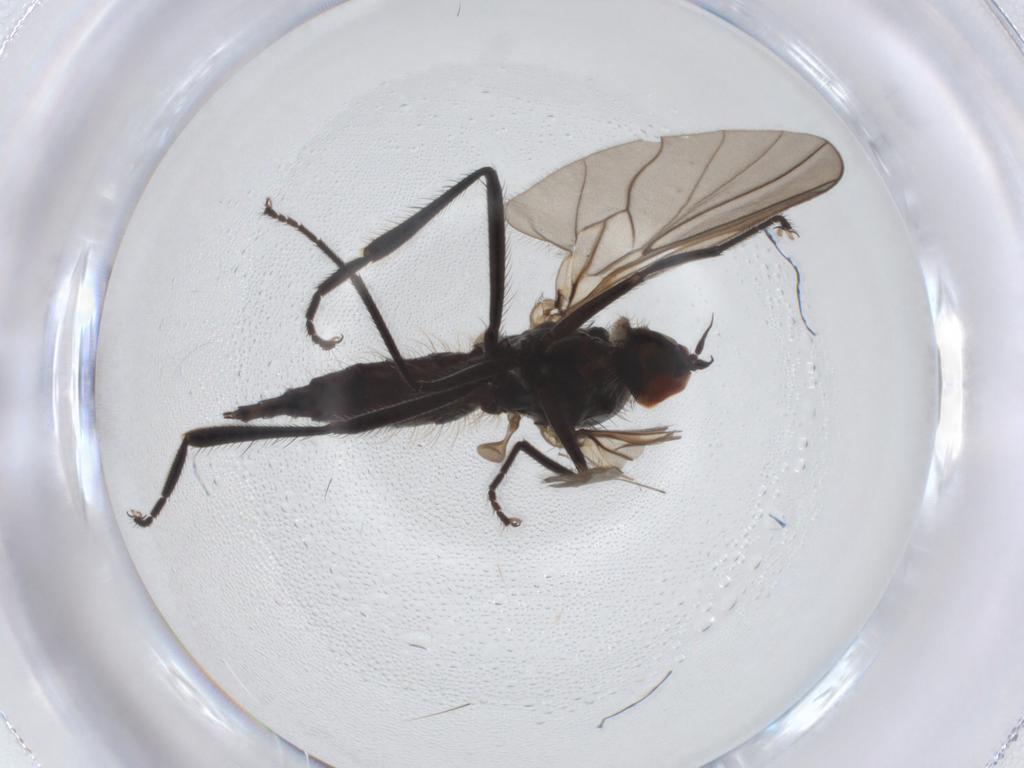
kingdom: Animalia
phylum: Arthropoda
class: Insecta
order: Diptera
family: Hybotidae
